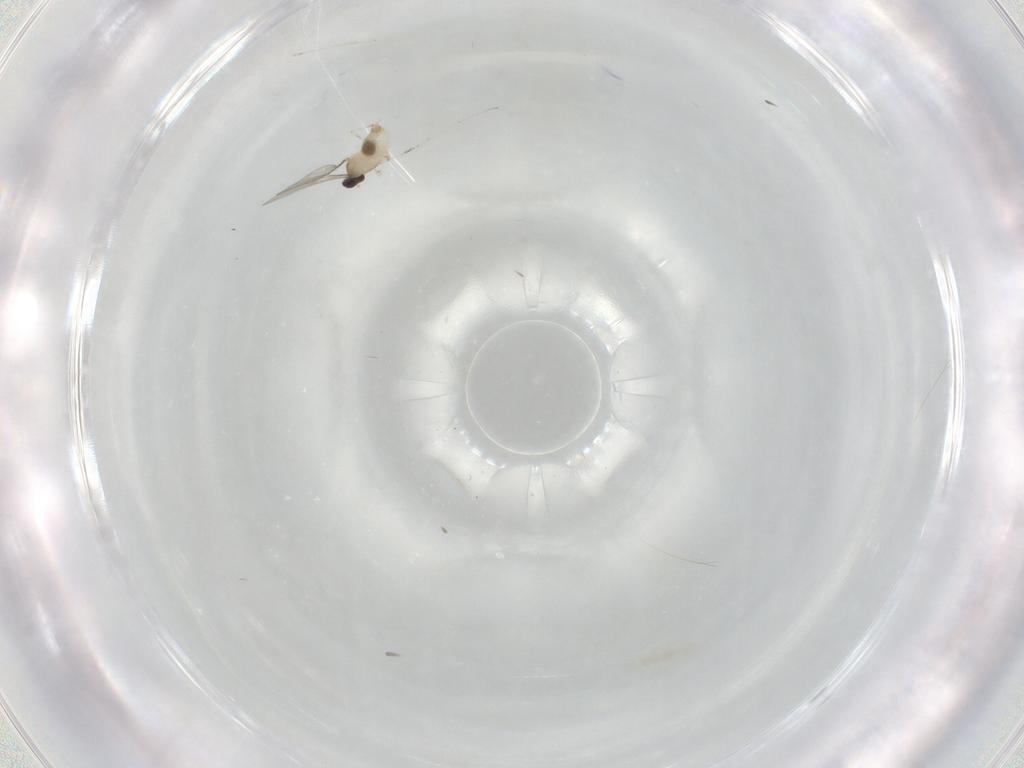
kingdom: Animalia
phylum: Arthropoda
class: Insecta
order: Diptera
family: Cecidomyiidae
